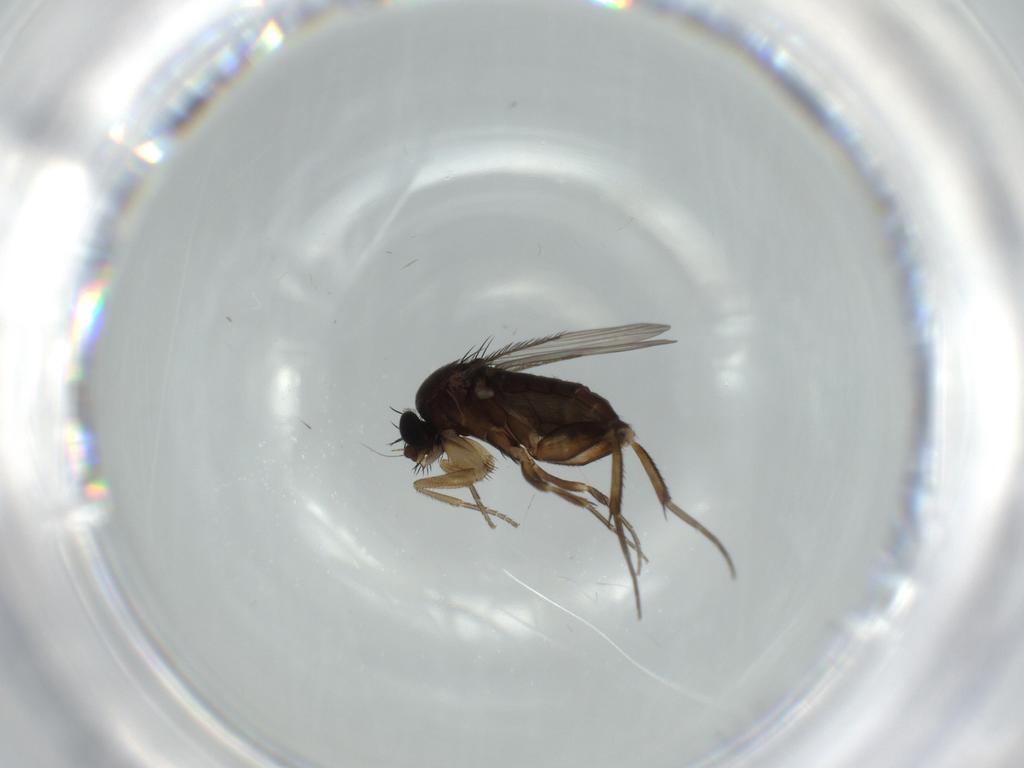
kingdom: Animalia
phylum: Arthropoda
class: Insecta
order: Diptera
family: Phoridae
